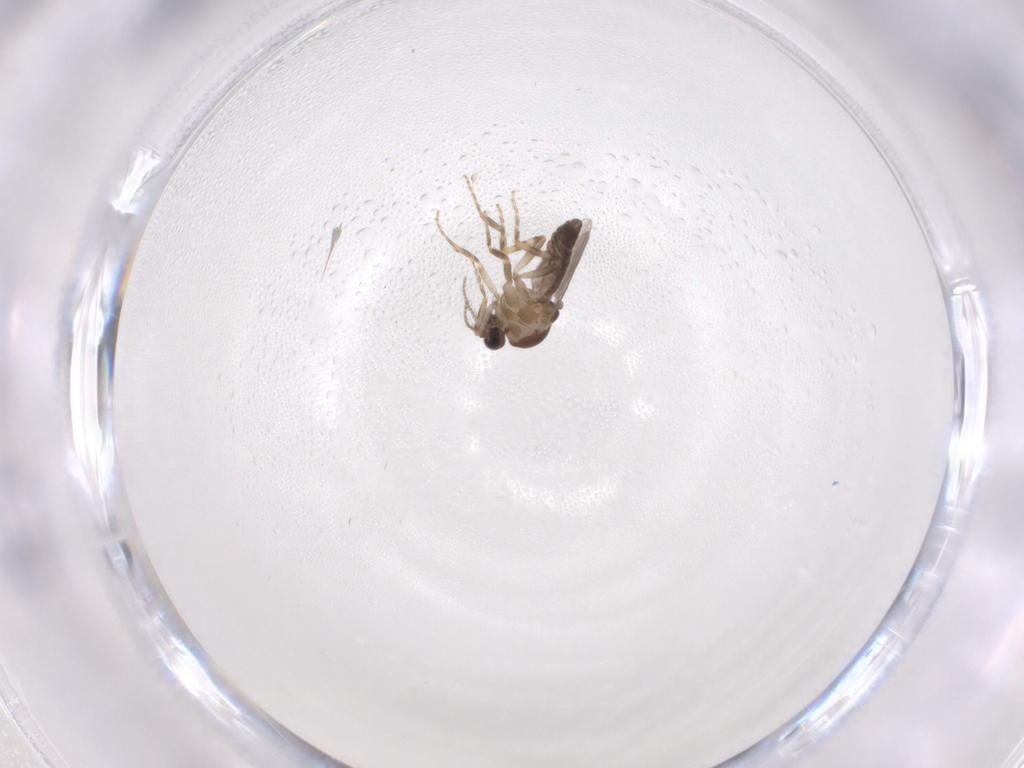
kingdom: Animalia
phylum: Arthropoda
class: Insecta
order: Diptera
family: Ceratopogonidae
